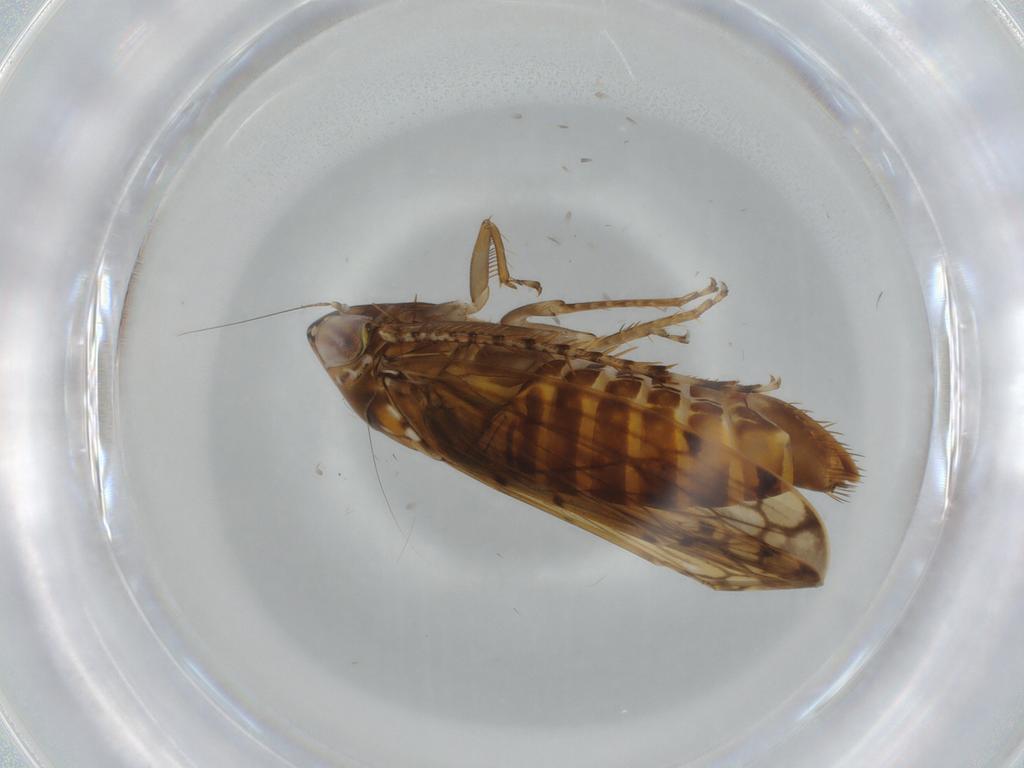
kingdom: Animalia
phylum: Arthropoda
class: Insecta
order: Hemiptera
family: Cicadellidae
